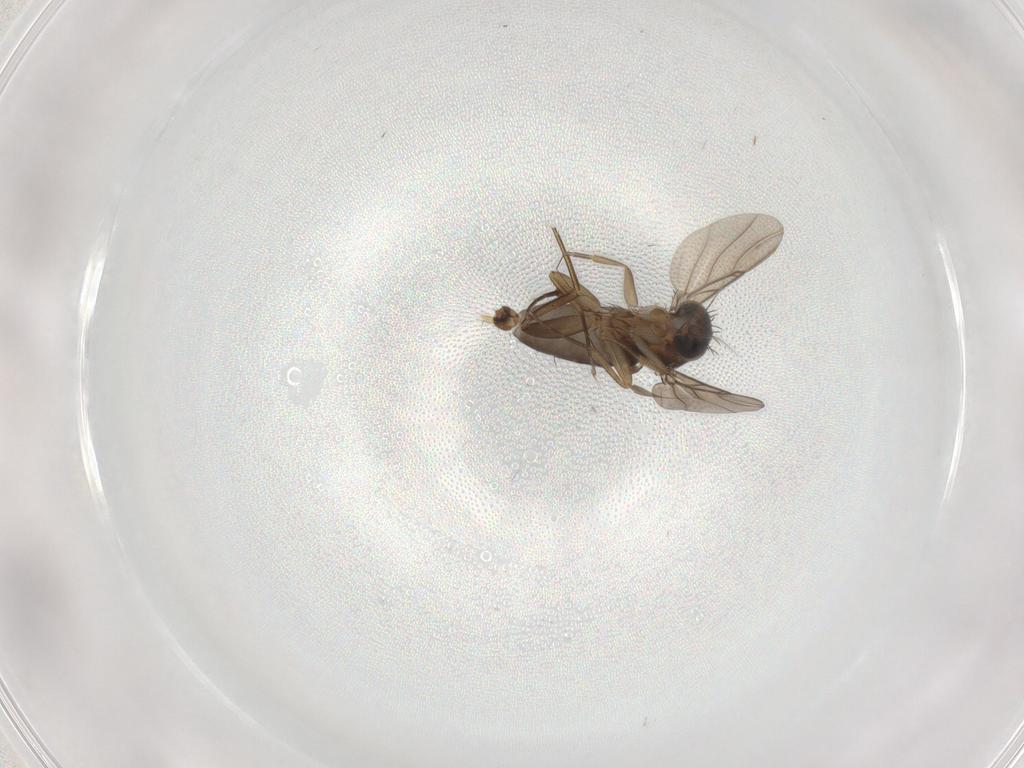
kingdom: Animalia
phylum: Arthropoda
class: Insecta
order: Diptera
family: Phoridae
